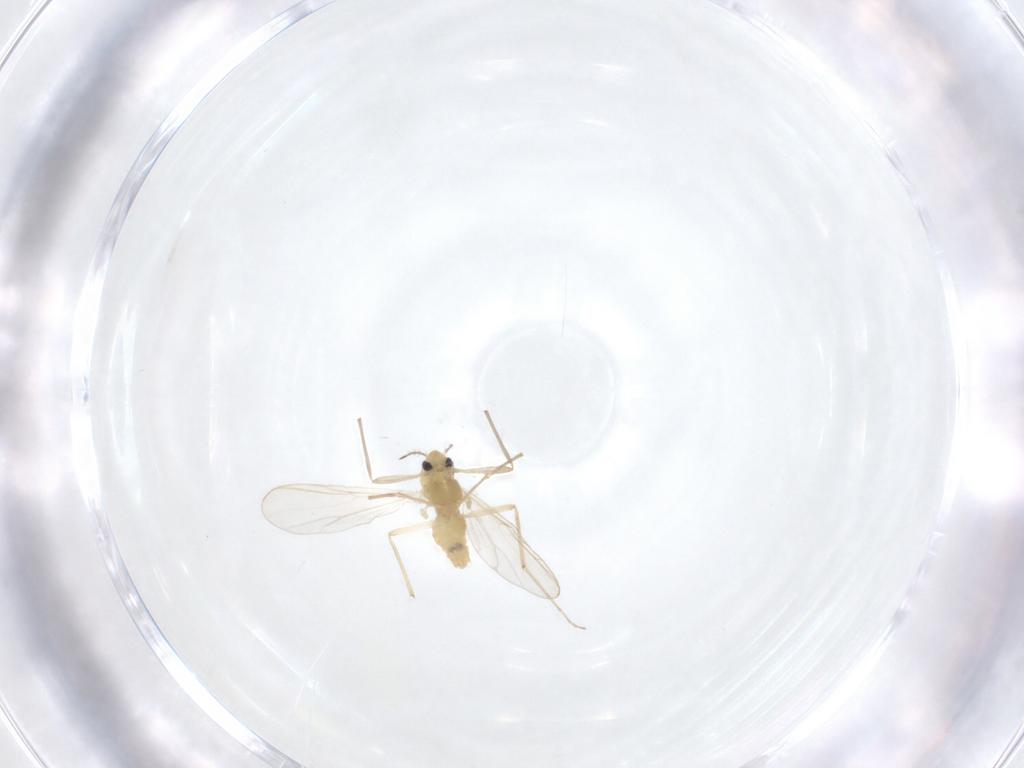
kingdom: Animalia
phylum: Arthropoda
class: Insecta
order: Diptera
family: Chironomidae
